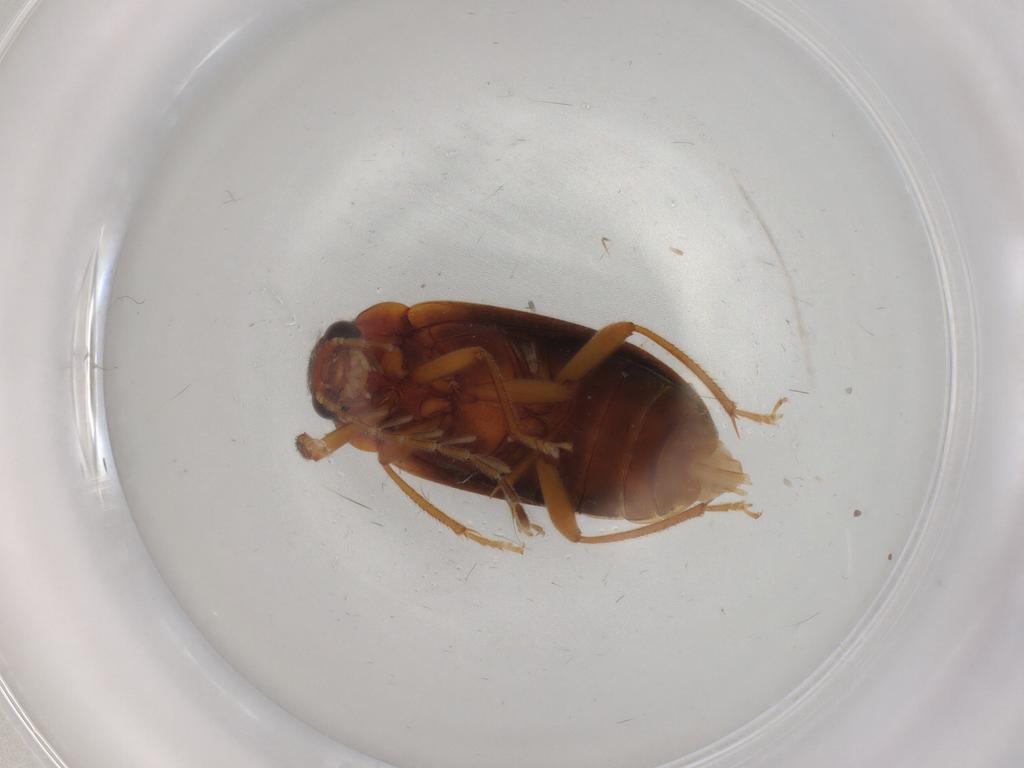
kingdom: Animalia
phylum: Arthropoda
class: Insecta
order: Coleoptera
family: Ptilodactylidae
